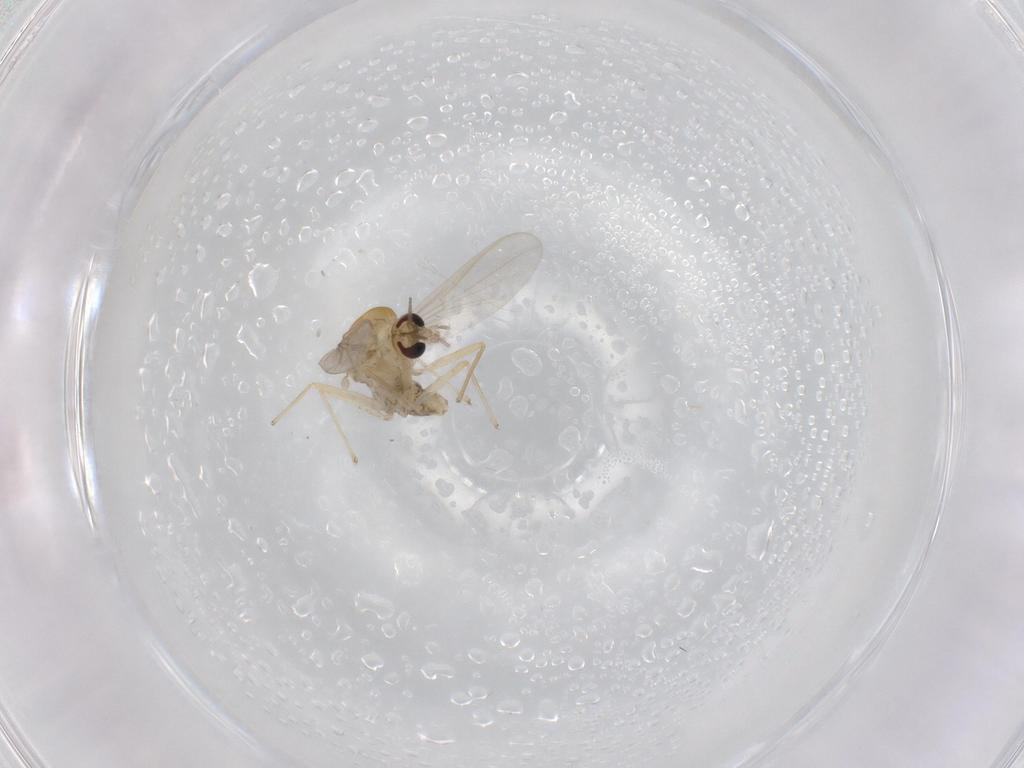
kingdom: Animalia
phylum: Arthropoda
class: Insecta
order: Diptera
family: Chironomidae
